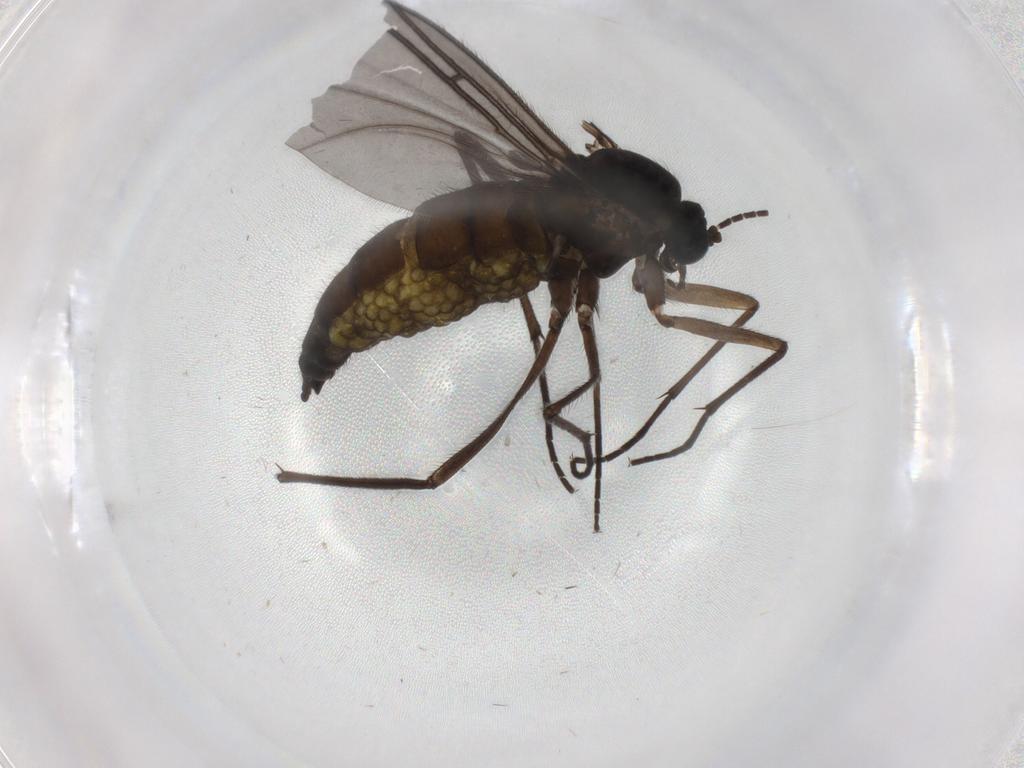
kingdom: Animalia
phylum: Arthropoda
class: Insecta
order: Diptera
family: Sciaridae
